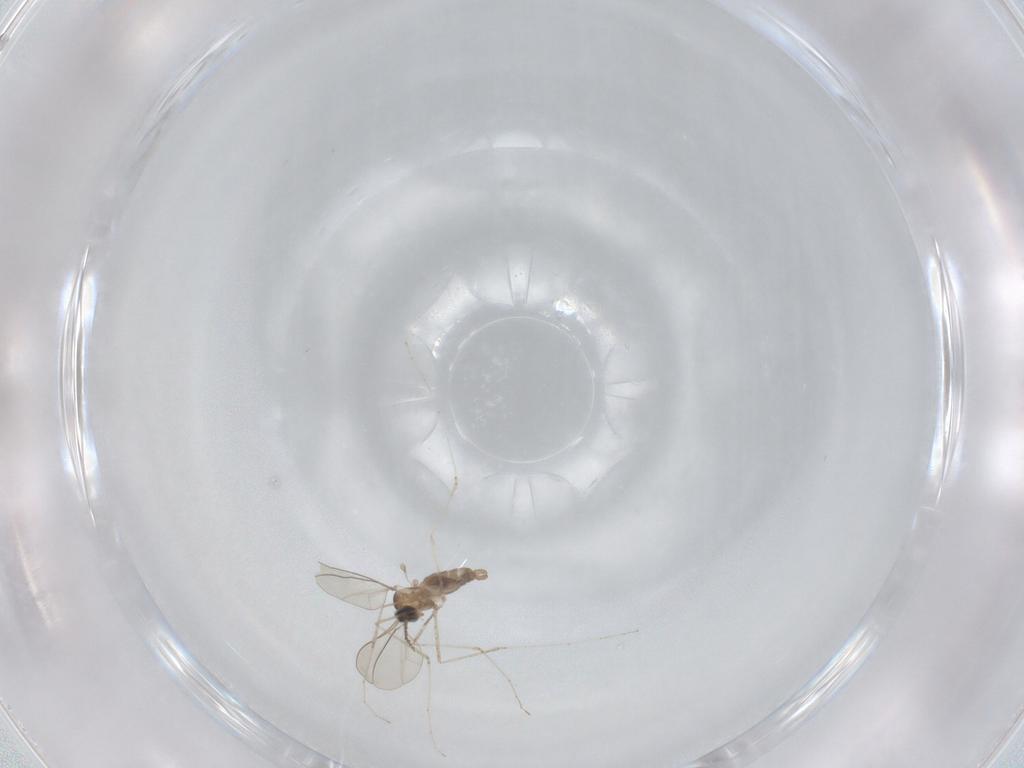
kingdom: Animalia
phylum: Arthropoda
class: Insecta
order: Diptera
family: Cecidomyiidae
